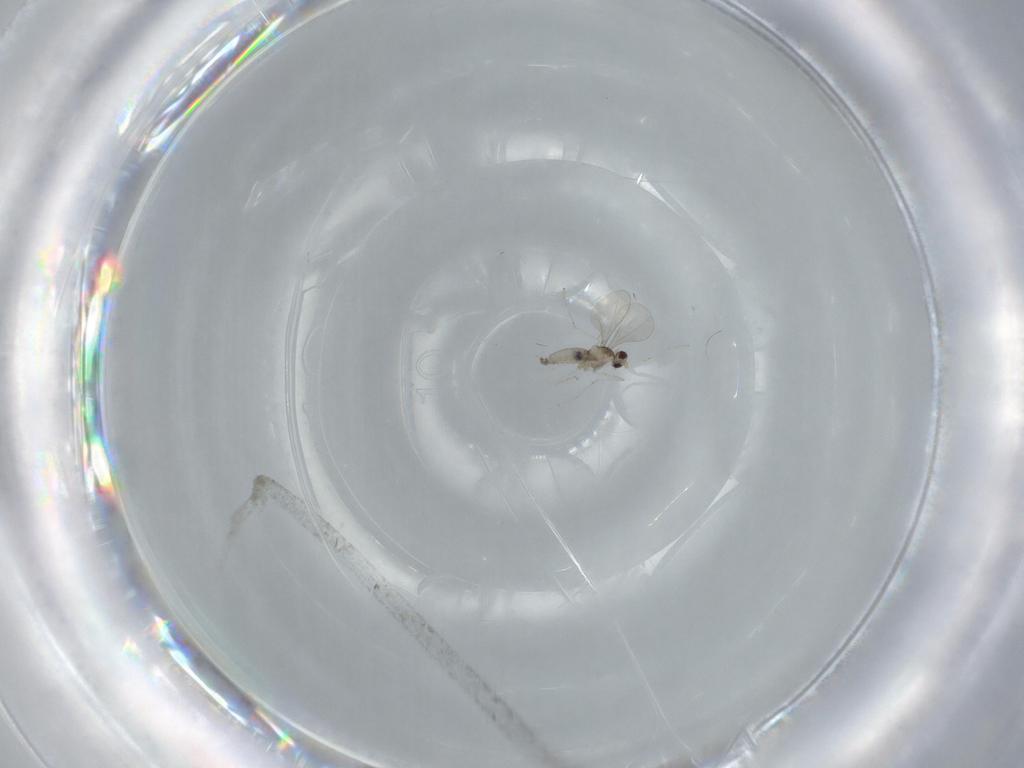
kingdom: Animalia
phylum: Arthropoda
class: Insecta
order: Diptera
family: Cecidomyiidae
